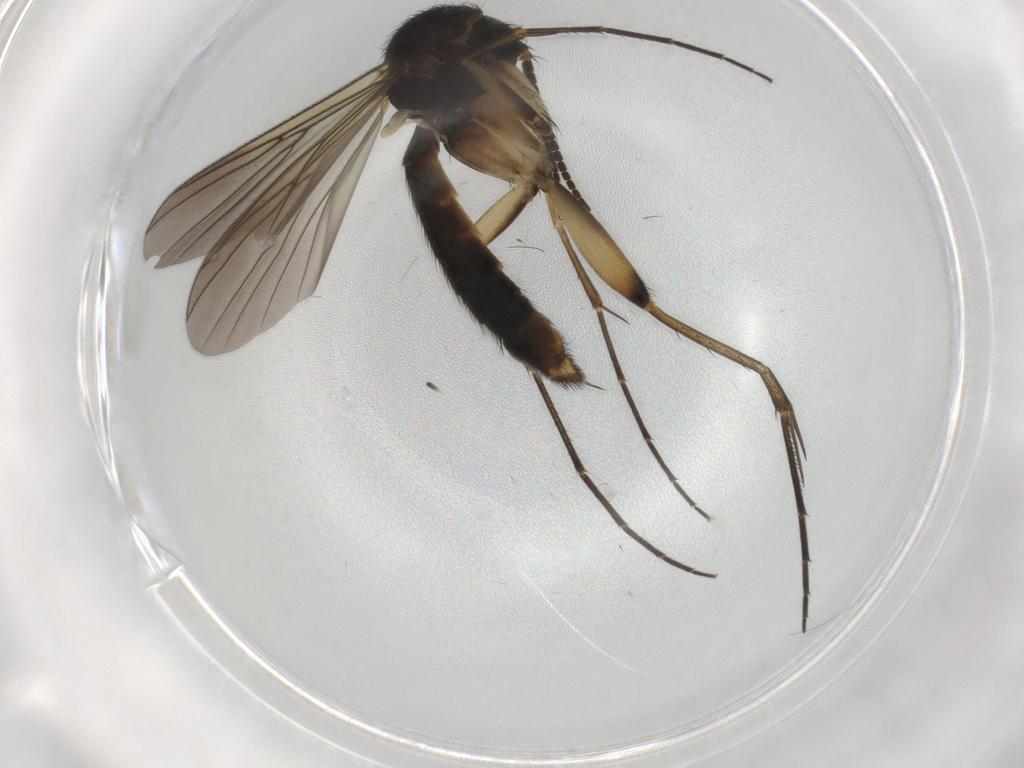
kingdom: Animalia
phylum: Arthropoda
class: Insecta
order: Diptera
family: Mycetophilidae
